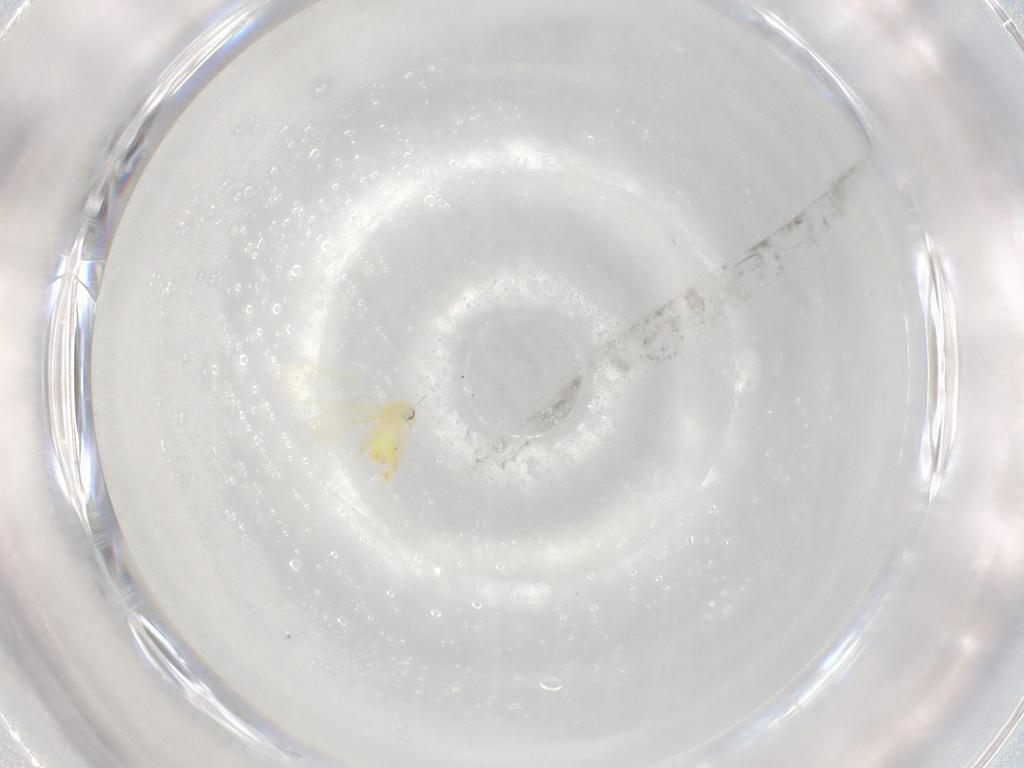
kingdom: Animalia
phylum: Arthropoda
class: Insecta
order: Hemiptera
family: Aleyrodidae
